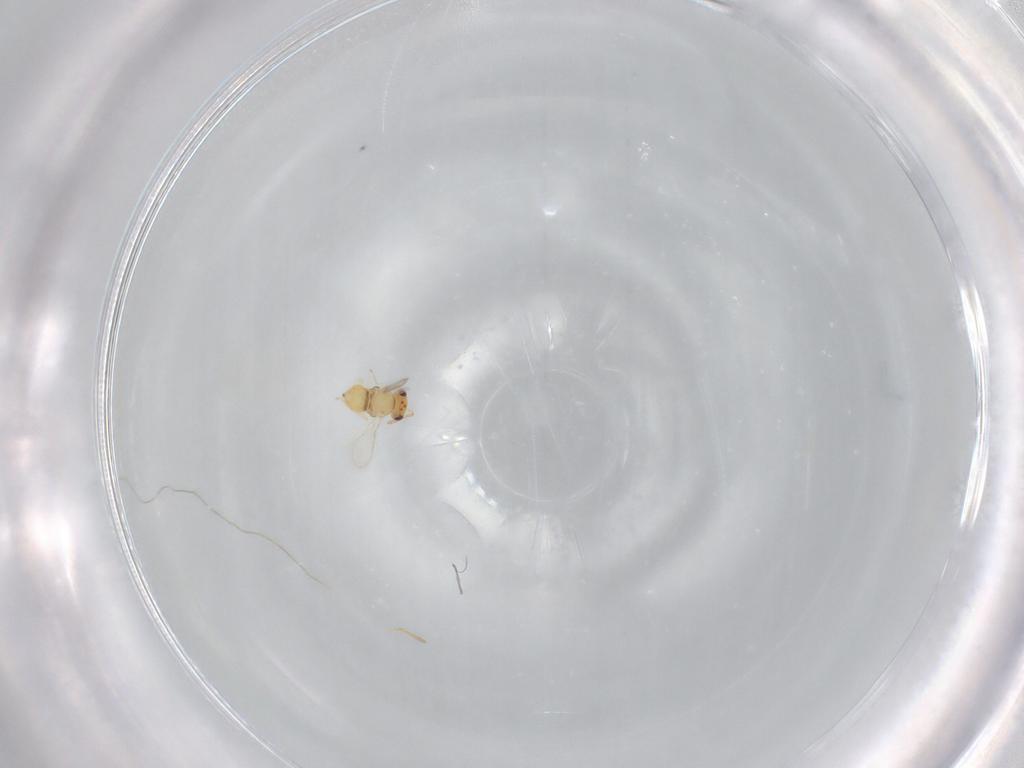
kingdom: Animalia
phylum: Arthropoda
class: Insecta
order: Hymenoptera
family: Aphelinidae
